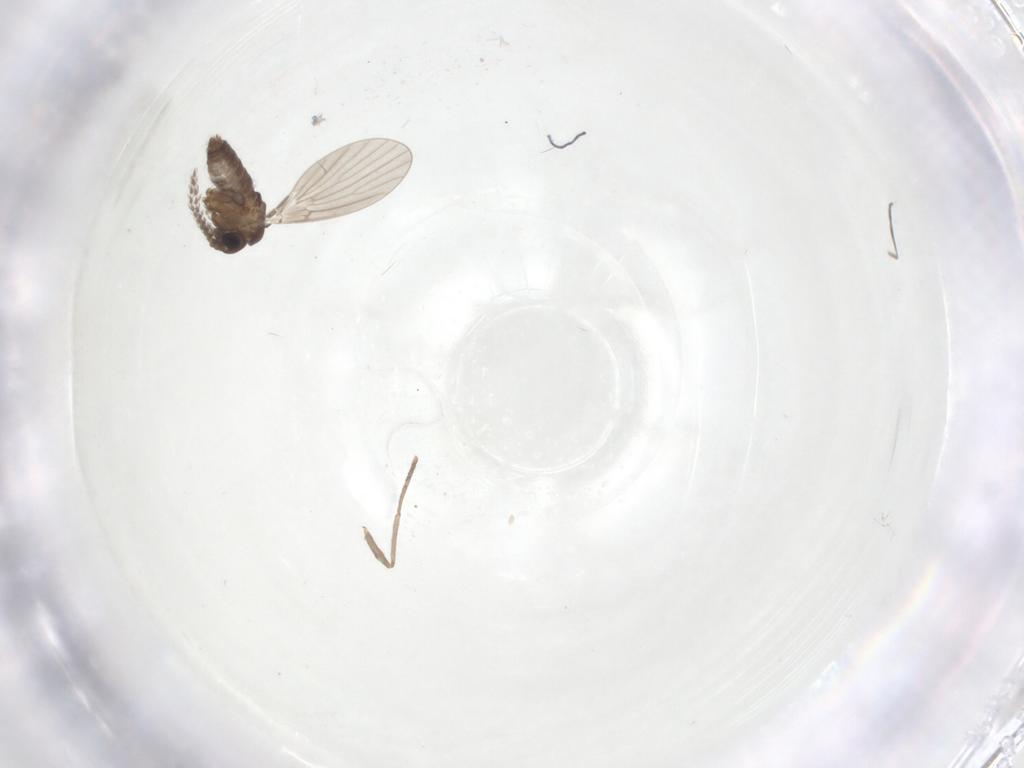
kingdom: Animalia
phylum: Arthropoda
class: Insecta
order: Diptera
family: Cecidomyiidae
